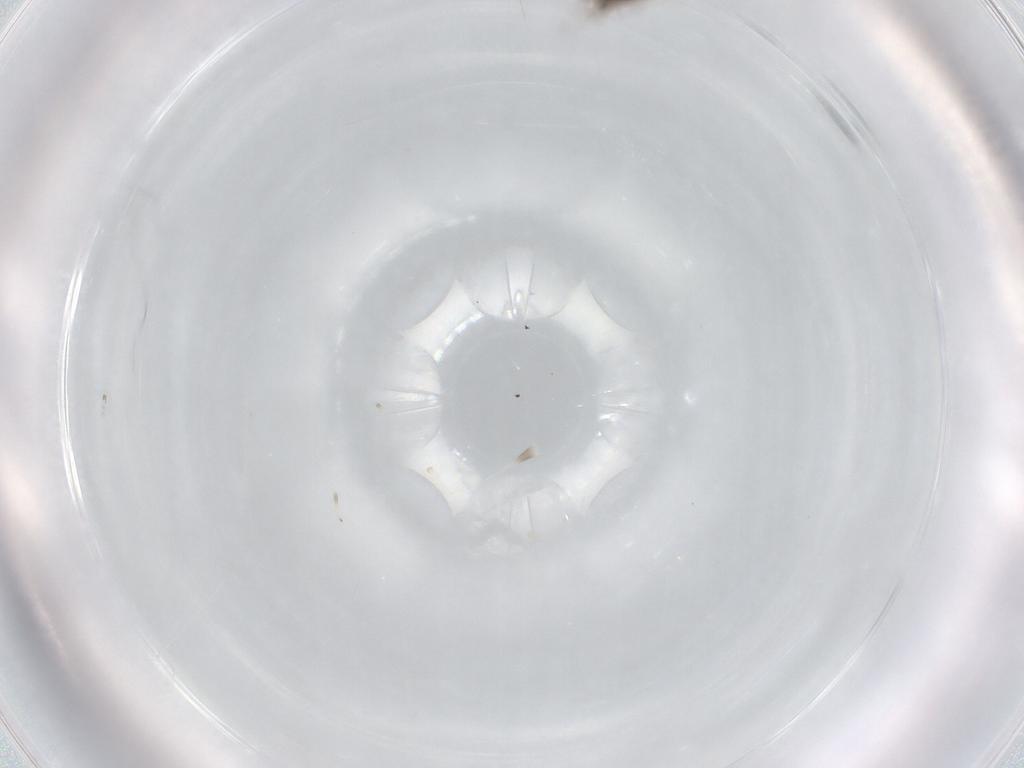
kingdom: Animalia
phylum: Arthropoda
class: Insecta
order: Diptera
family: Cecidomyiidae
